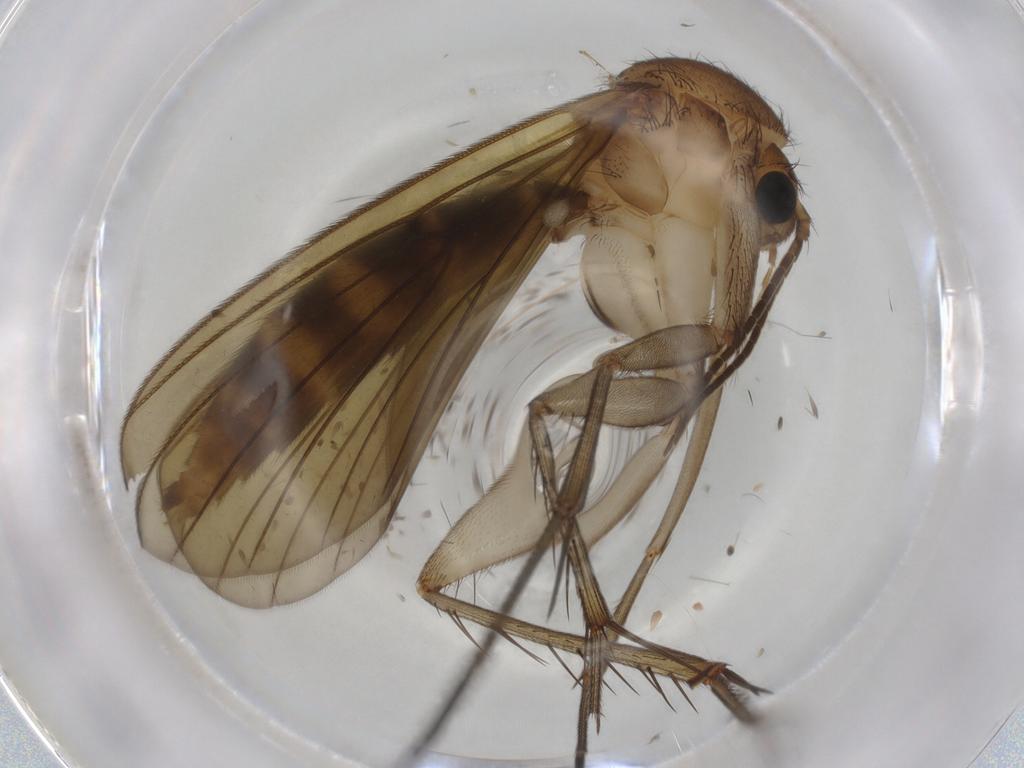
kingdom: Animalia
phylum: Arthropoda
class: Insecta
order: Diptera
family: Mycetophilidae
